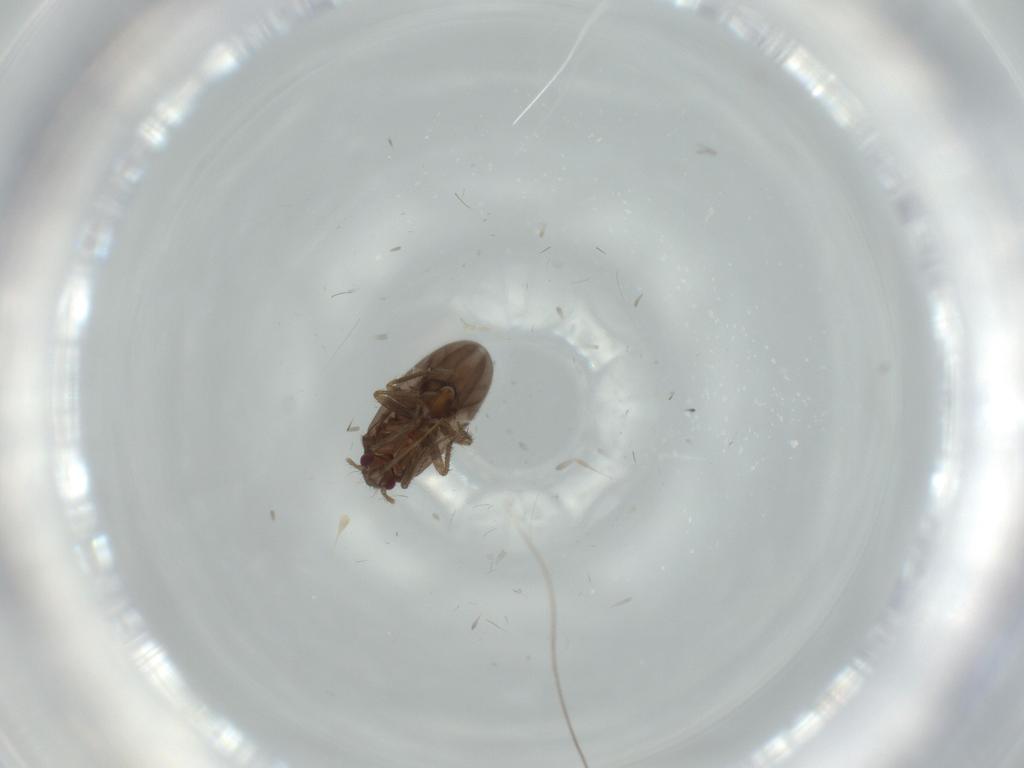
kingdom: Animalia
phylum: Arthropoda
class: Insecta
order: Hemiptera
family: Ceratocombidae
